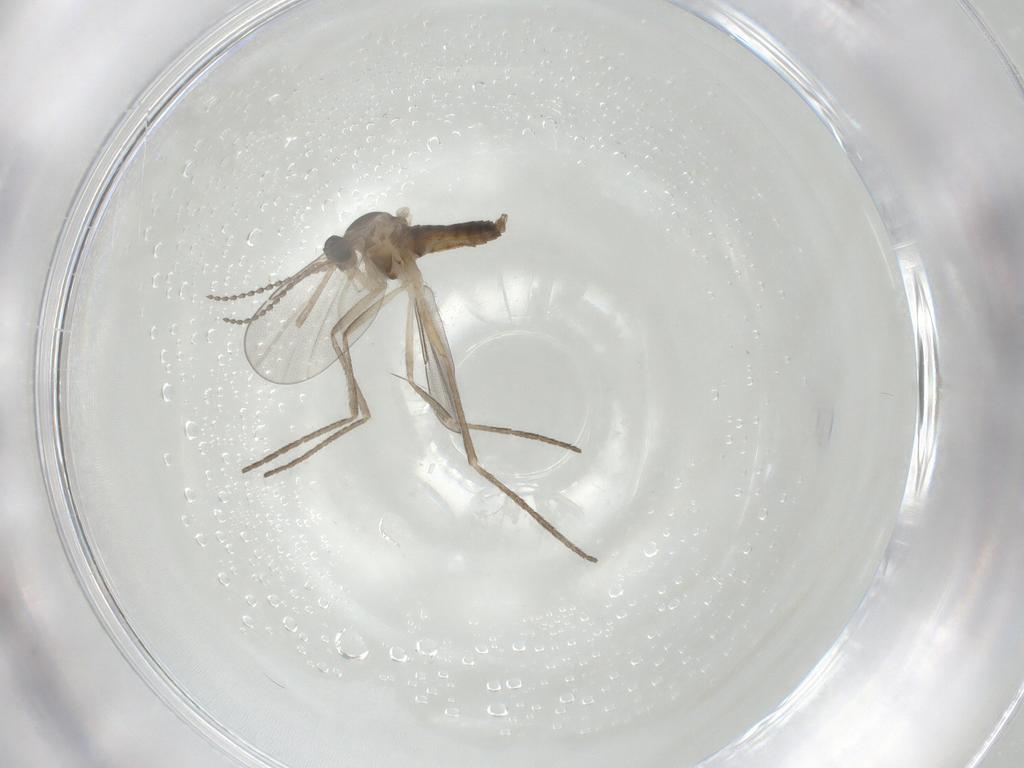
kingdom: Animalia
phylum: Arthropoda
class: Insecta
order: Diptera
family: Cecidomyiidae
